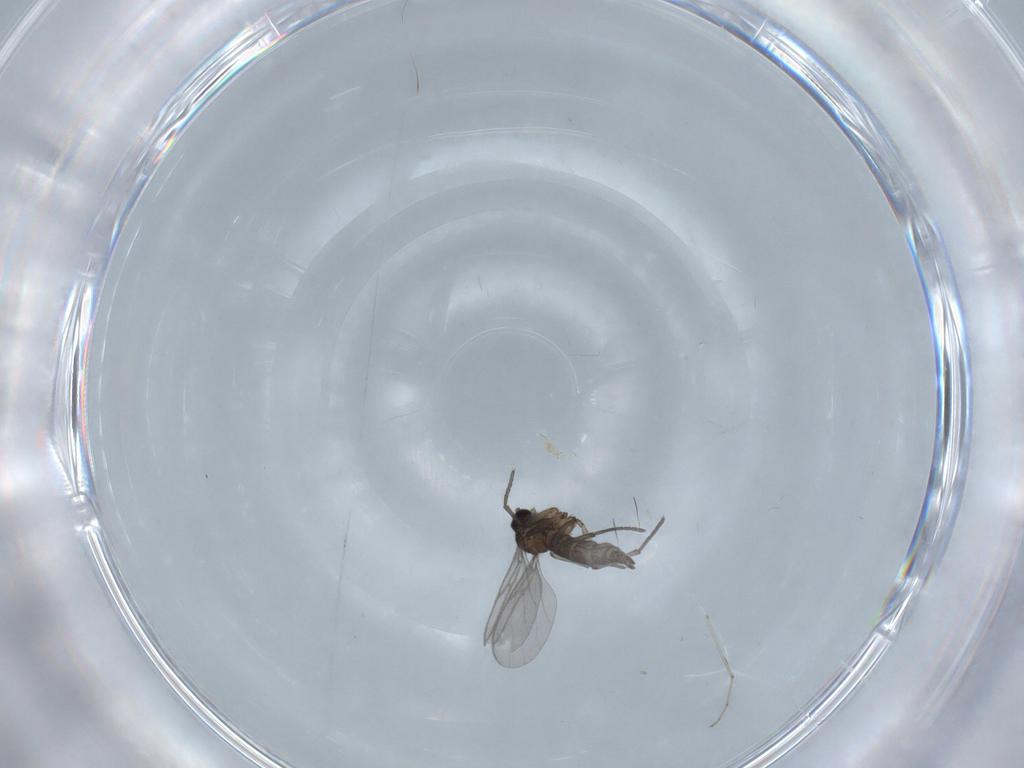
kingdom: Animalia
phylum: Arthropoda
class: Insecta
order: Diptera
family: Cecidomyiidae
